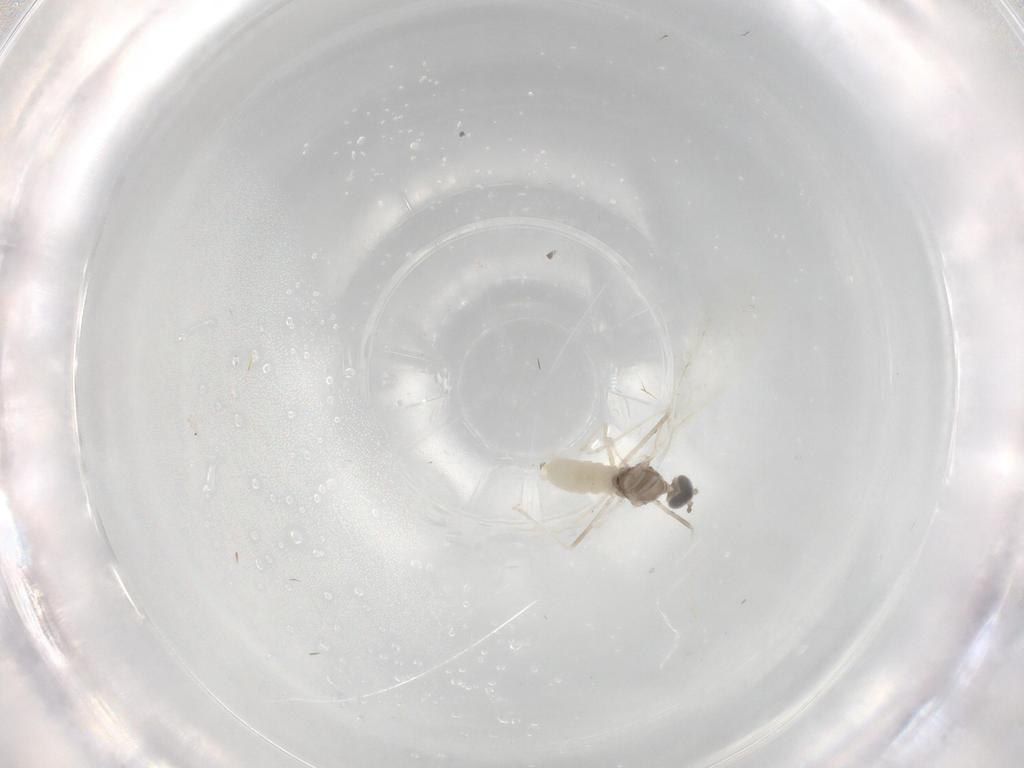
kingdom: Animalia
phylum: Arthropoda
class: Insecta
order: Diptera
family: Cecidomyiidae
